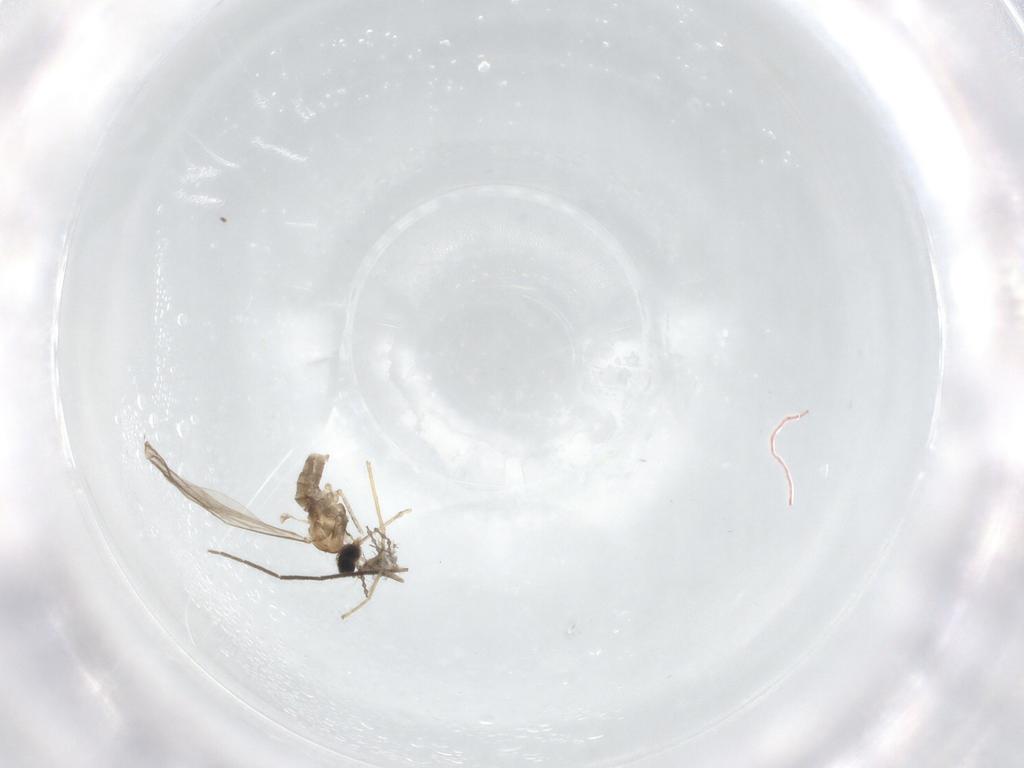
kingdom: Animalia
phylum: Arthropoda
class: Insecta
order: Diptera
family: Chironomidae
